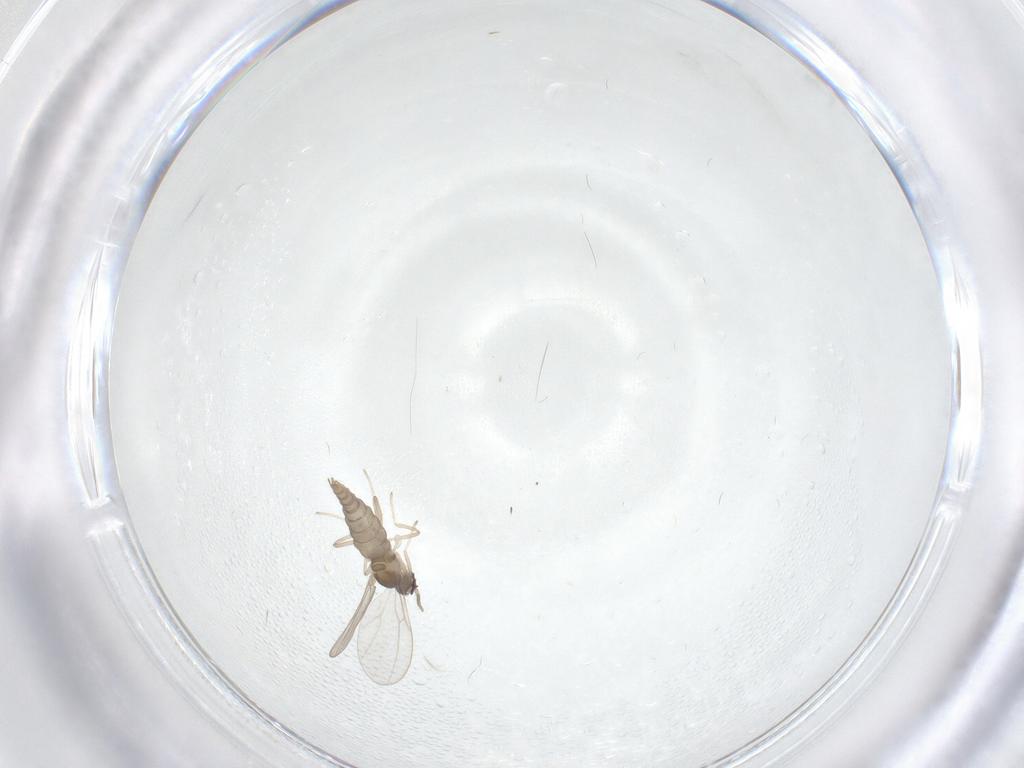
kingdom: Animalia
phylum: Arthropoda
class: Insecta
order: Diptera
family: Cecidomyiidae
